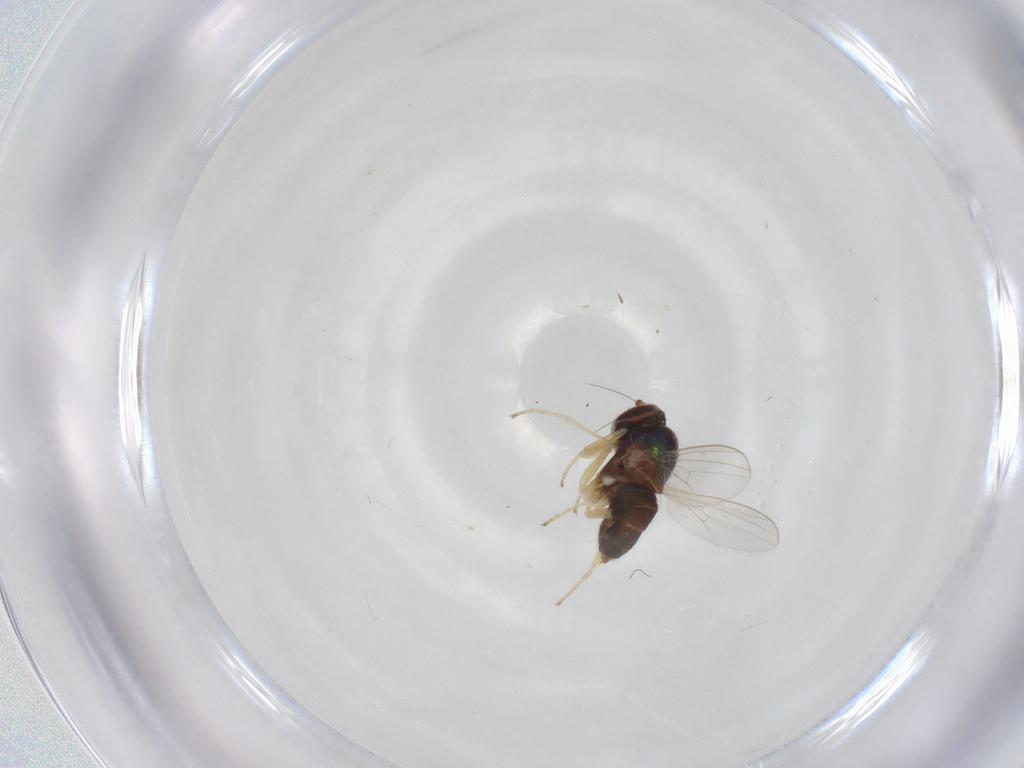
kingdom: Animalia
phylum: Arthropoda
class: Insecta
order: Diptera
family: Dolichopodidae
